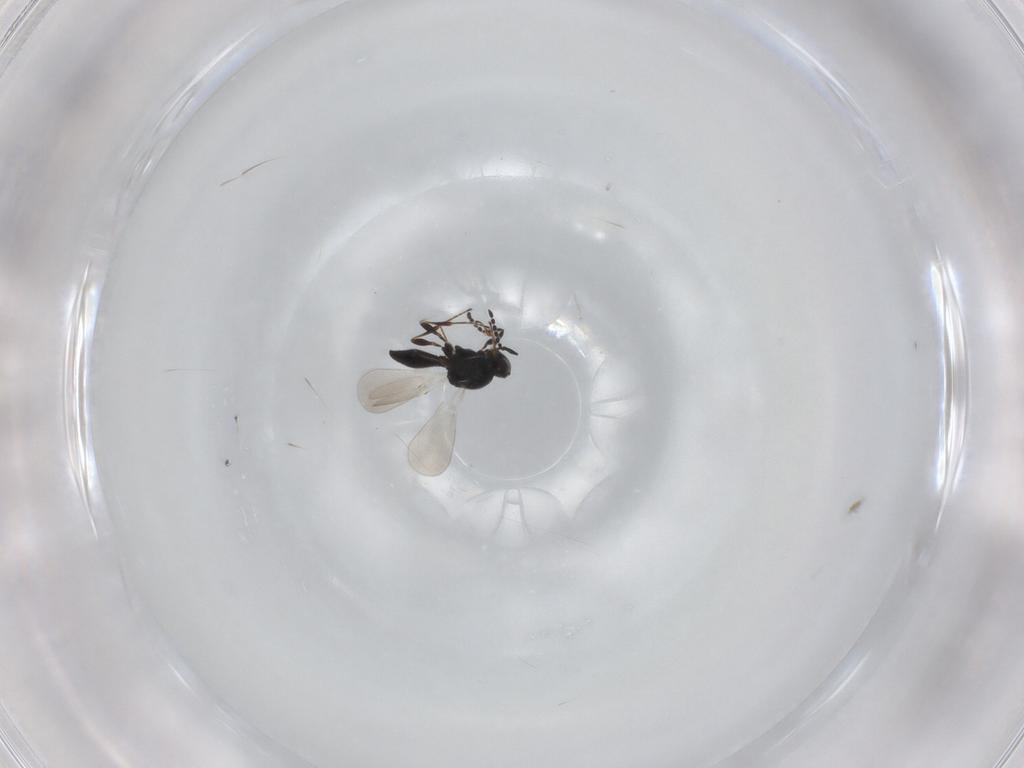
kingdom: Animalia
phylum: Arthropoda
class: Insecta
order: Hymenoptera
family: Platygastridae
